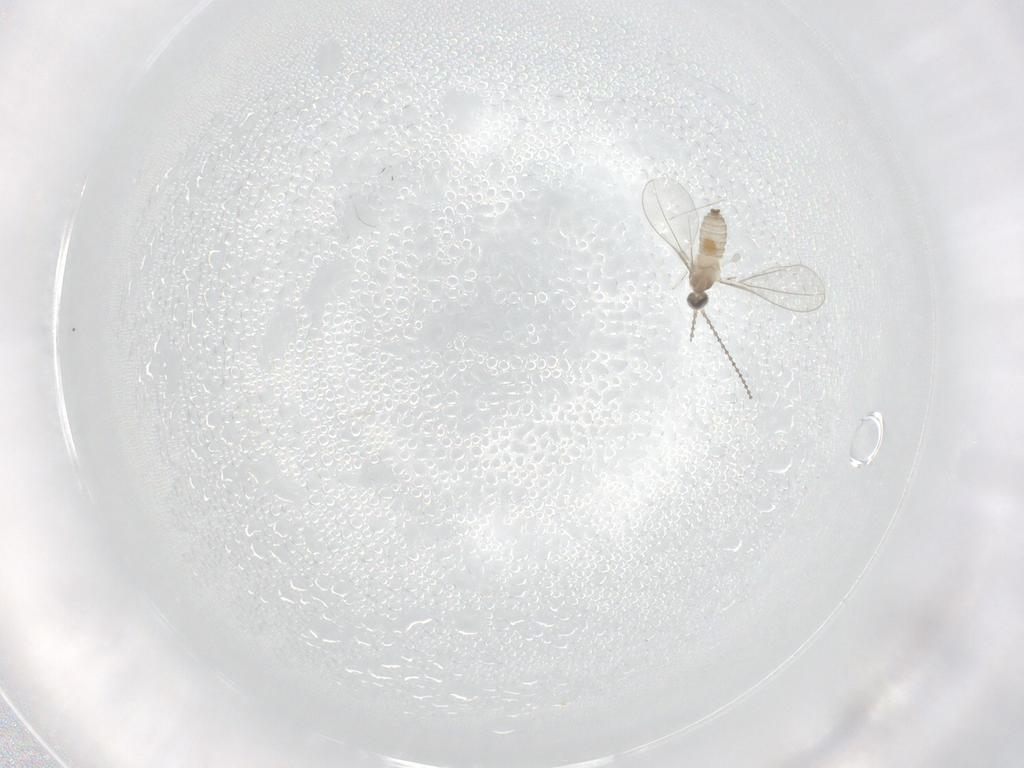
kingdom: Animalia
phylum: Arthropoda
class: Insecta
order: Diptera
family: Cecidomyiidae
